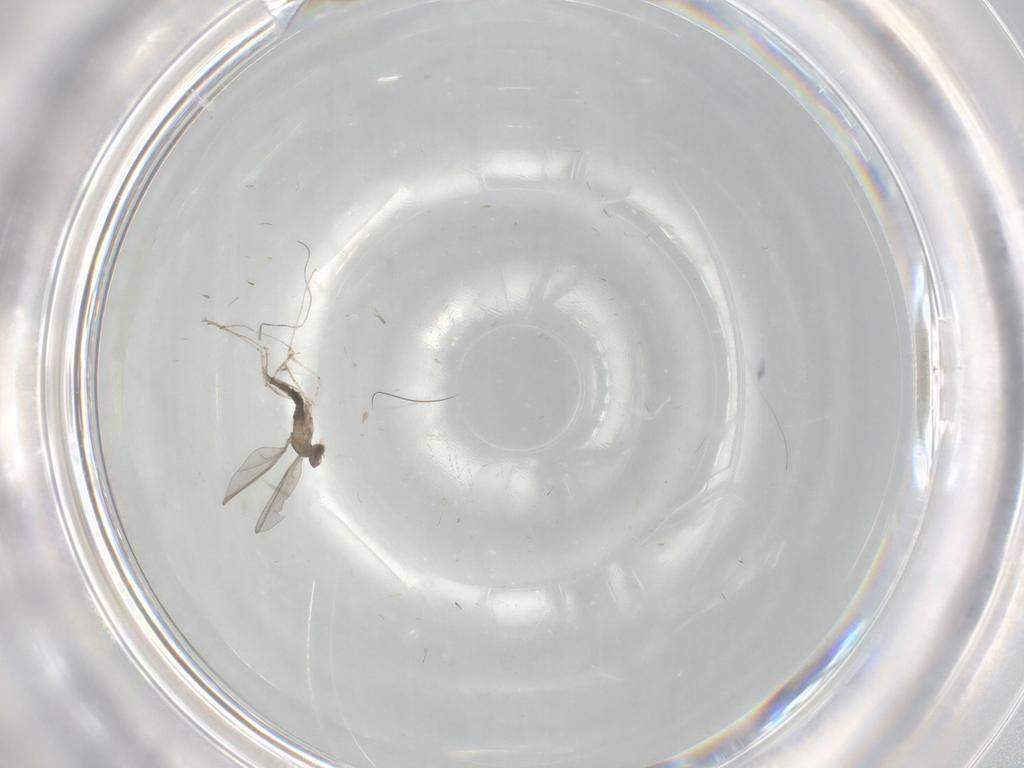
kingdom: Animalia
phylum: Arthropoda
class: Insecta
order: Diptera
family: Cecidomyiidae
